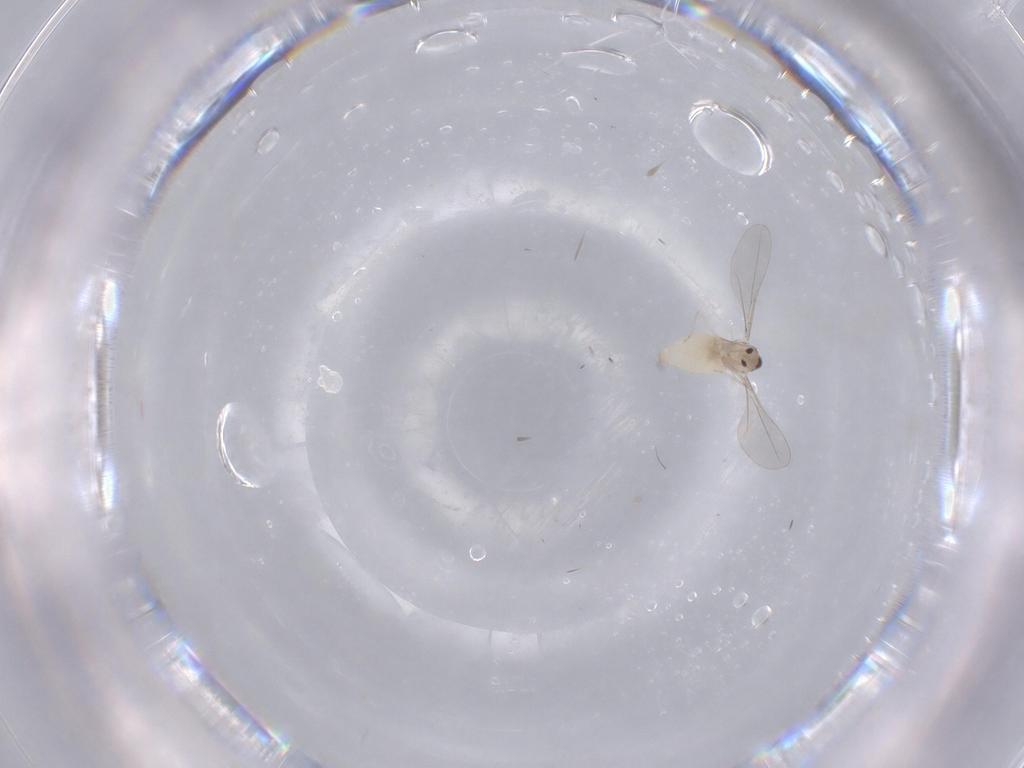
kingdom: Animalia
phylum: Arthropoda
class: Insecta
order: Diptera
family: Cecidomyiidae
